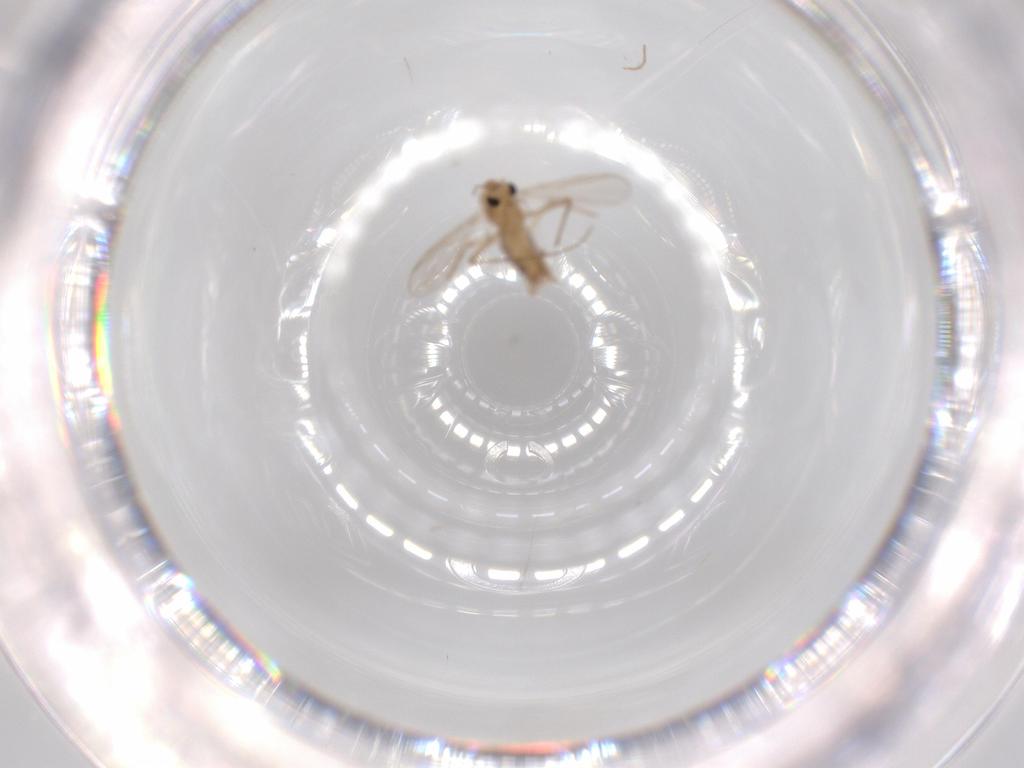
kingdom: Animalia
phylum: Arthropoda
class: Insecta
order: Diptera
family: Chironomidae
